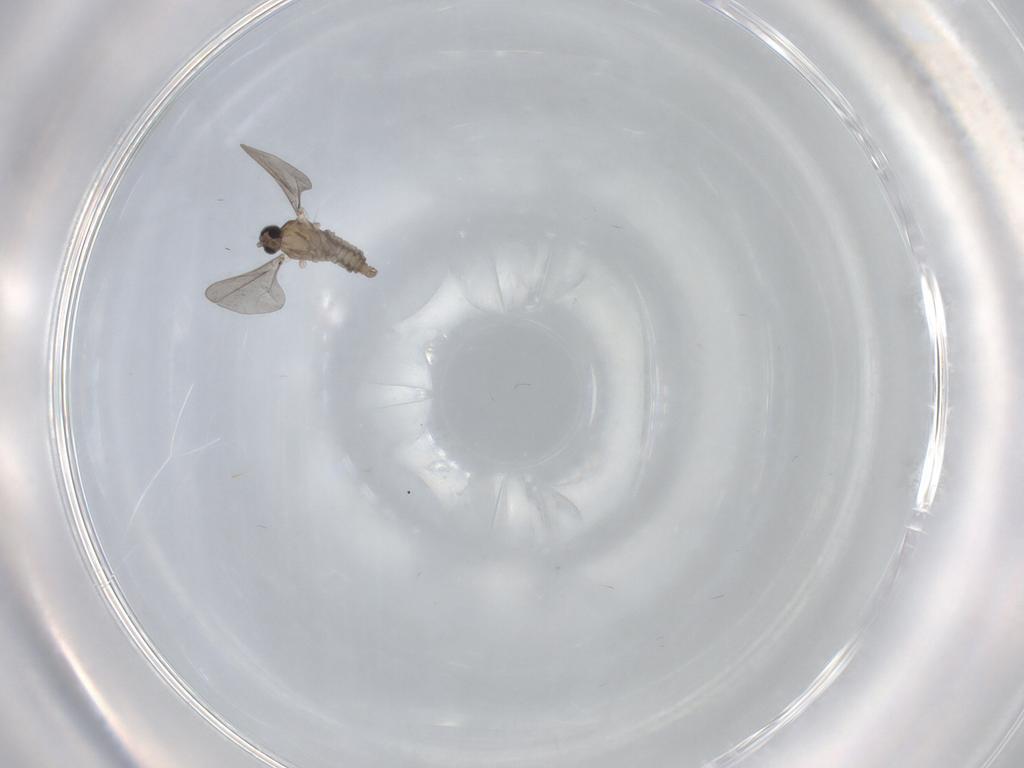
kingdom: Animalia
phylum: Arthropoda
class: Insecta
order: Diptera
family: Cecidomyiidae
